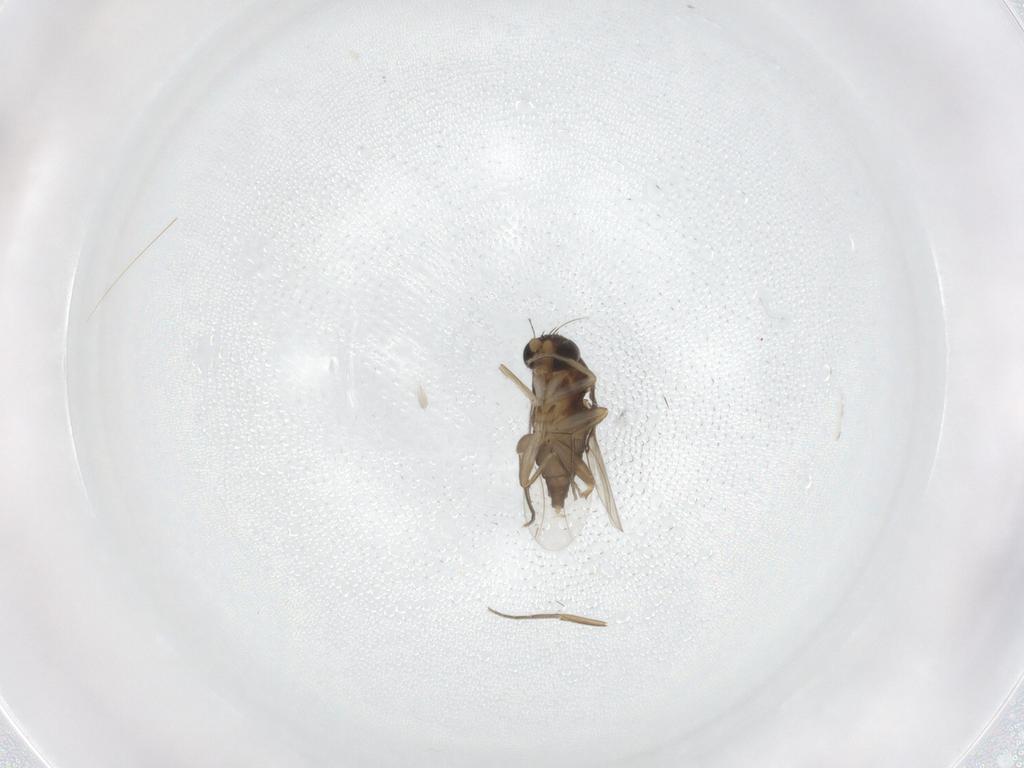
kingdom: Animalia
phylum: Arthropoda
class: Insecta
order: Diptera
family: Phoridae
